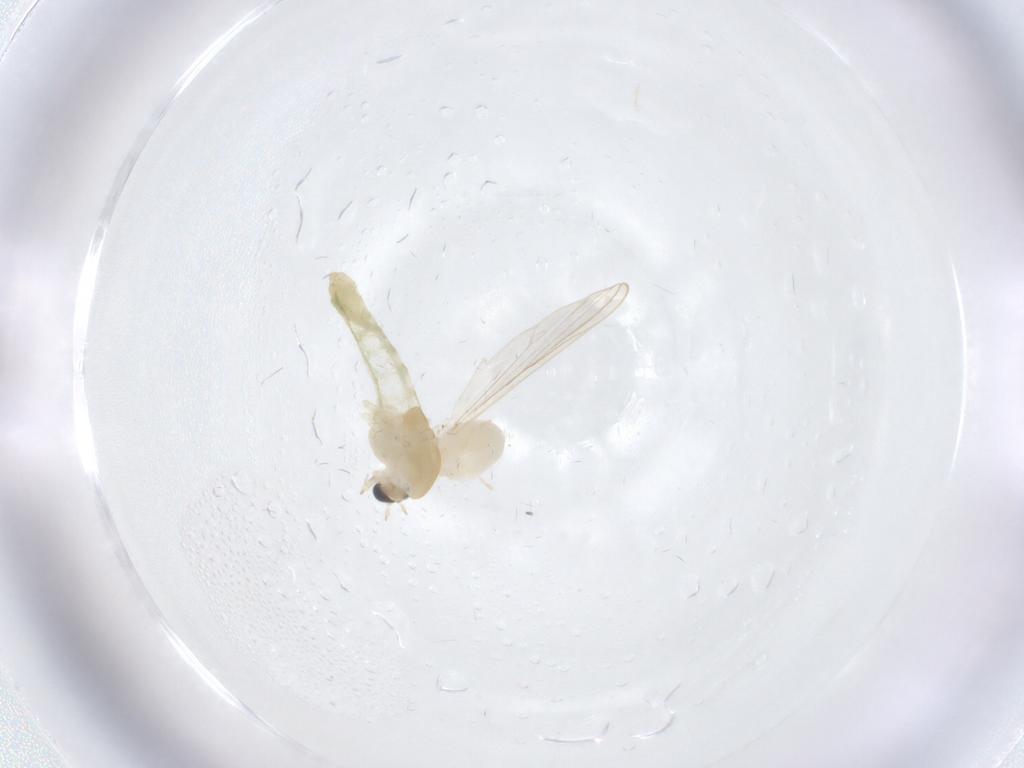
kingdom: Animalia
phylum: Arthropoda
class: Insecta
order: Diptera
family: Chironomidae
